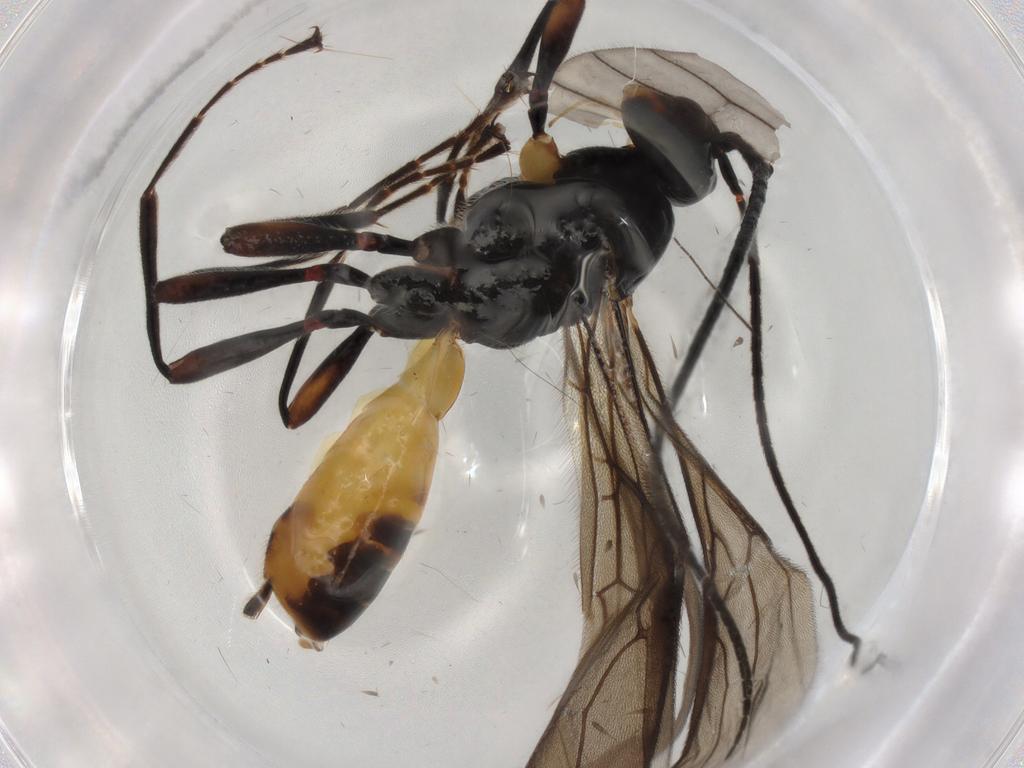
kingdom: Animalia
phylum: Arthropoda
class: Insecta
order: Hymenoptera
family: Braconidae
